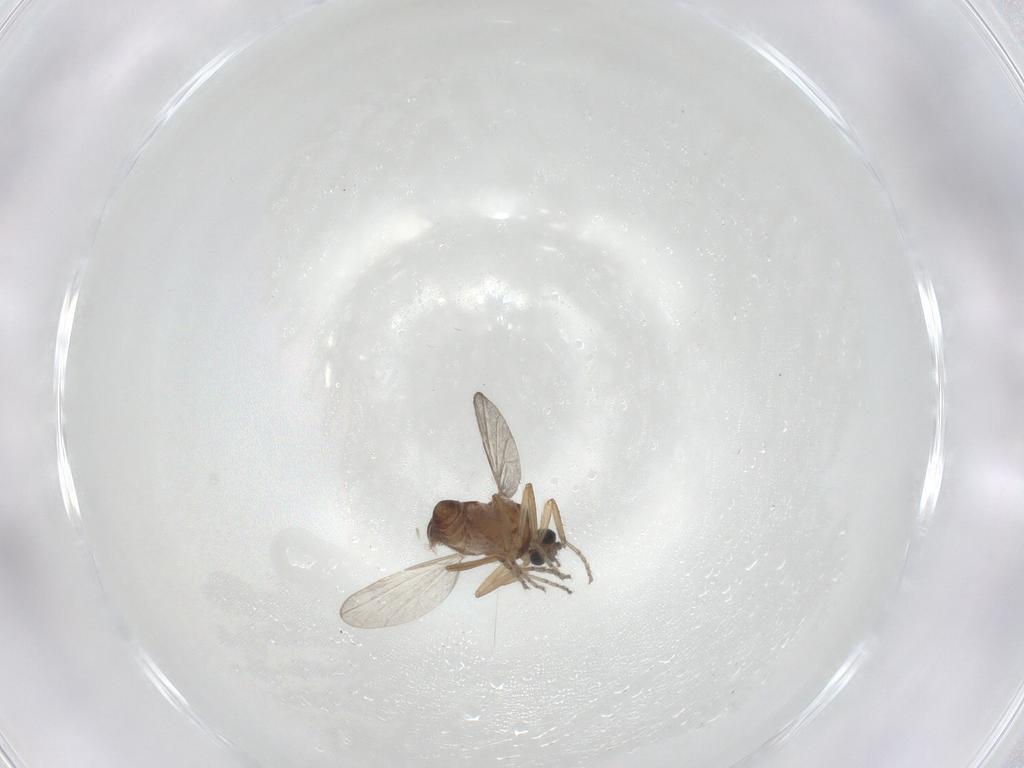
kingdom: Animalia
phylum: Arthropoda
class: Insecta
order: Diptera
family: Ceratopogonidae
